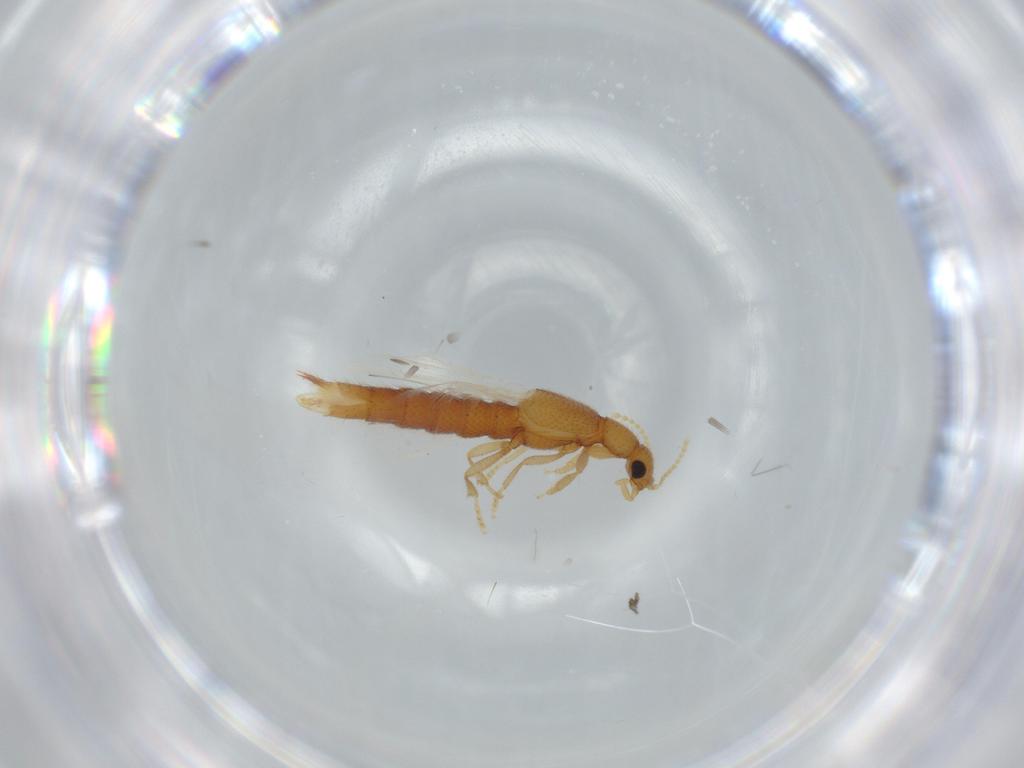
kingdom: Animalia
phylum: Arthropoda
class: Insecta
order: Coleoptera
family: Staphylinidae
